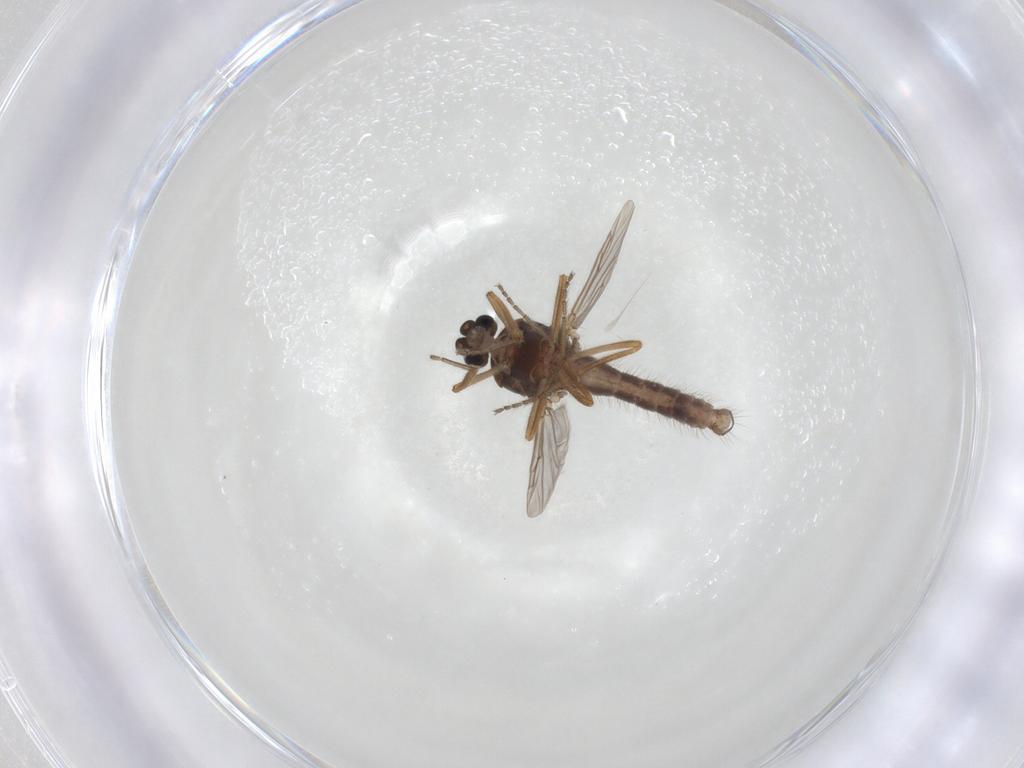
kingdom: Animalia
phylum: Arthropoda
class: Insecta
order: Diptera
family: Ceratopogonidae
